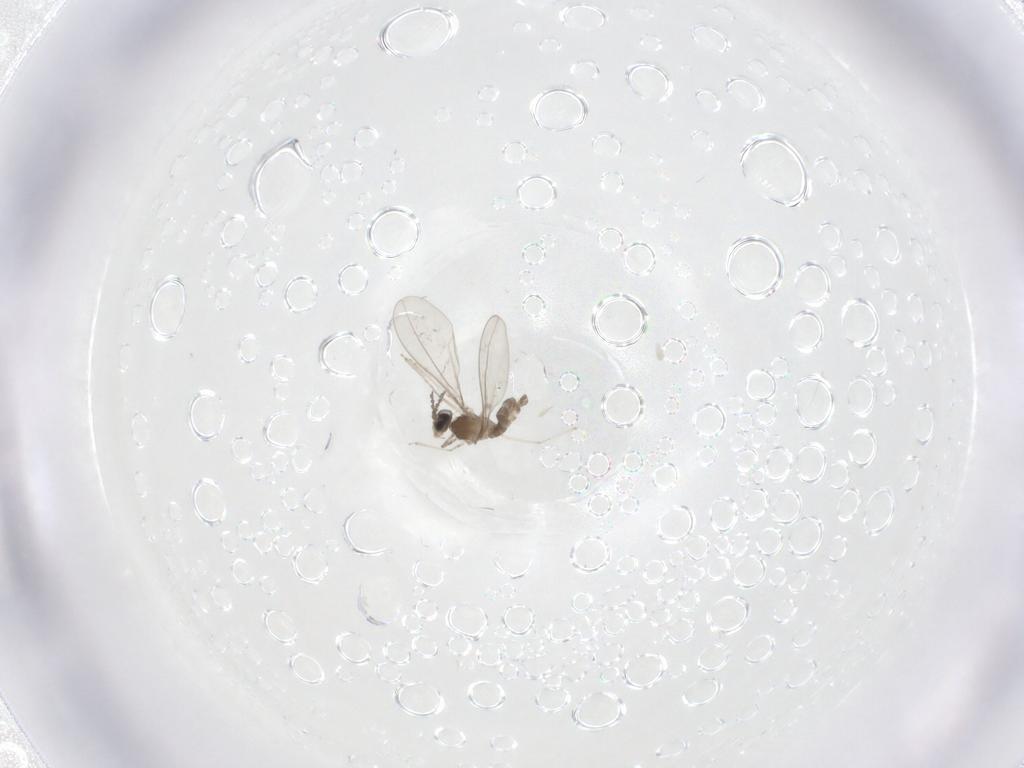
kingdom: Animalia
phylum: Arthropoda
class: Insecta
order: Diptera
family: Cecidomyiidae
